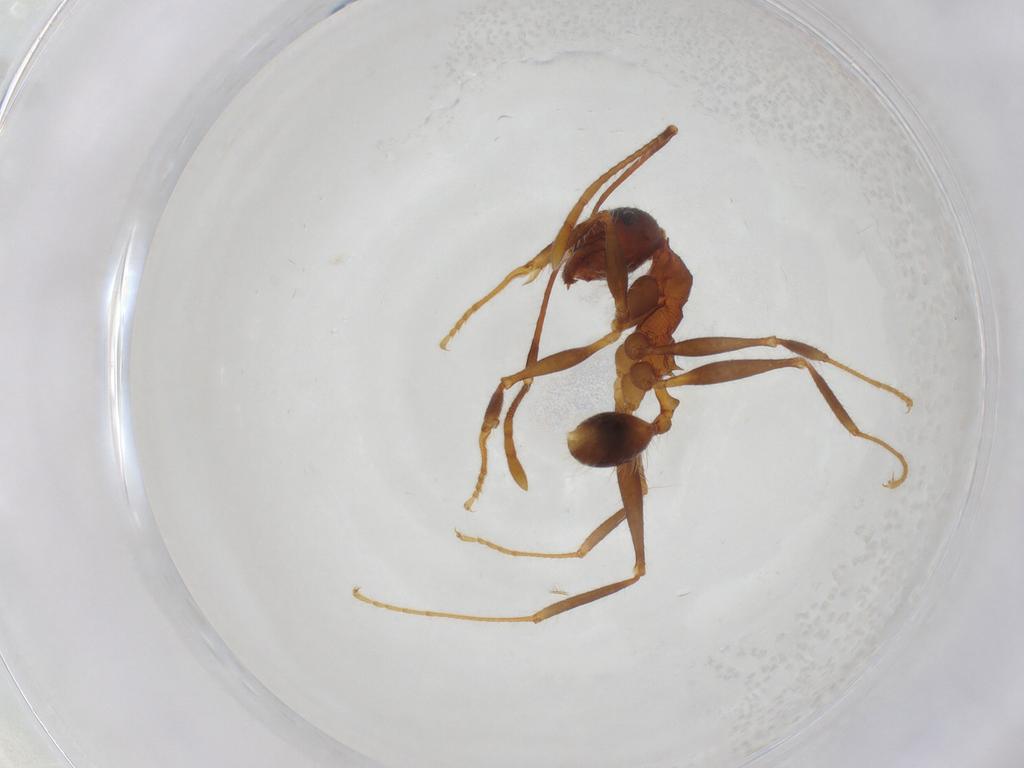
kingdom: Animalia
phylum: Arthropoda
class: Insecta
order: Hymenoptera
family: Formicidae
